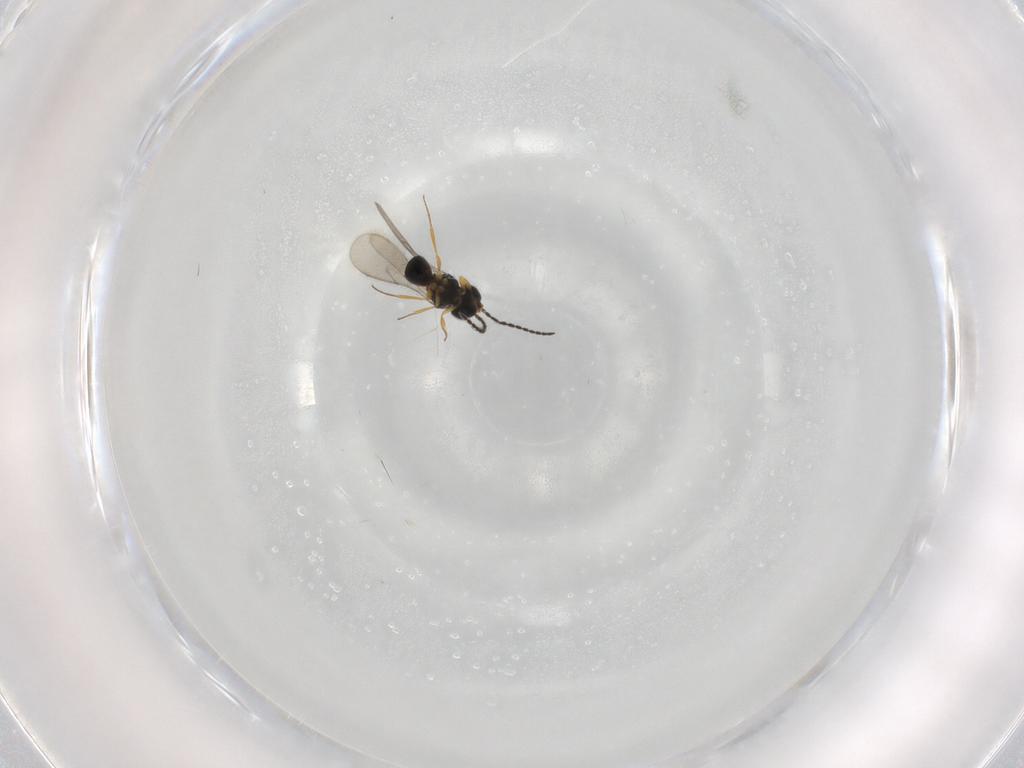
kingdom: Animalia
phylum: Arthropoda
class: Insecta
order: Hymenoptera
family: Scelionidae
